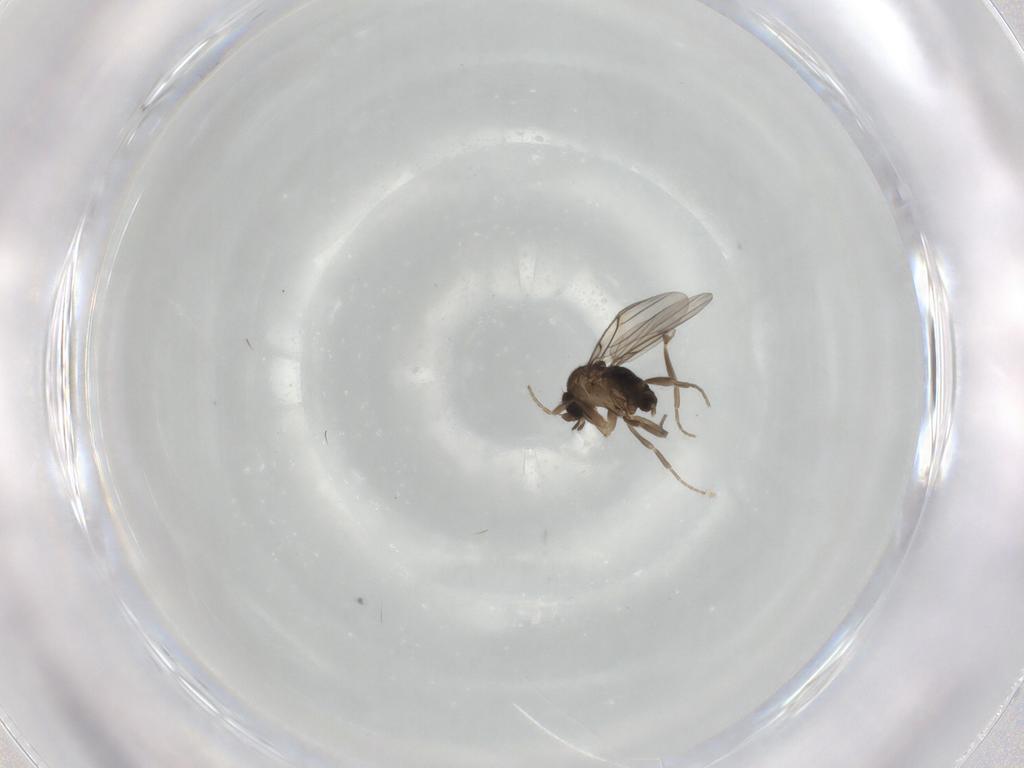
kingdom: Animalia
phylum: Arthropoda
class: Insecta
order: Diptera
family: Phoridae
